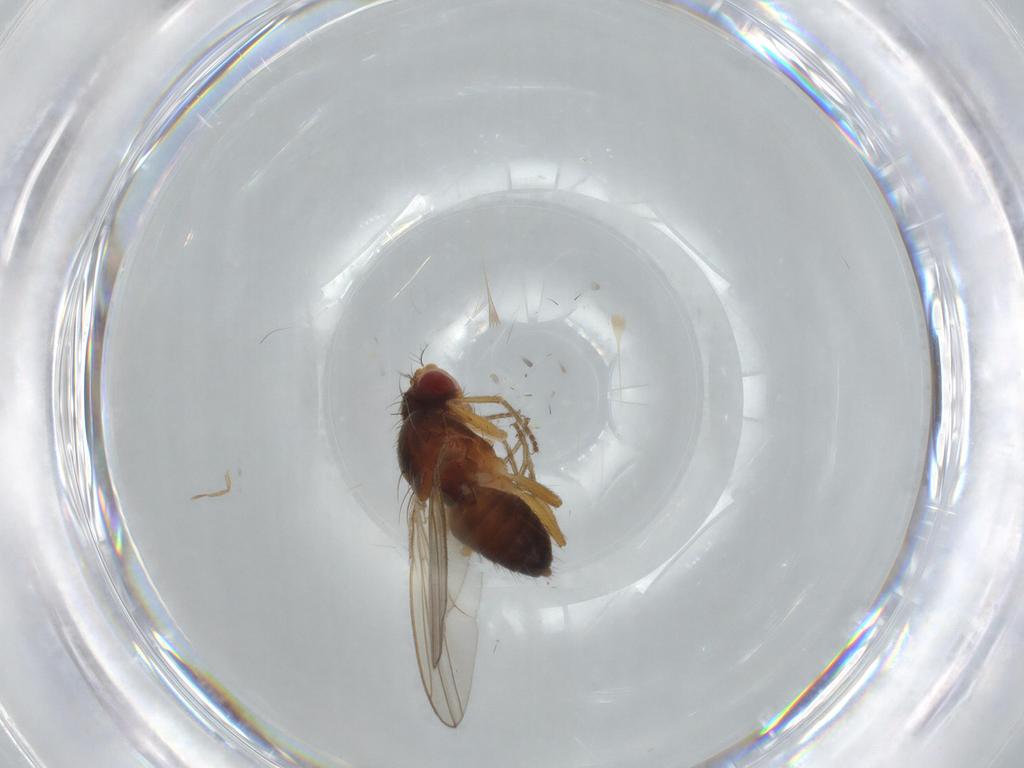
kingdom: Animalia
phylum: Arthropoda
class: Insecta
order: Diptera
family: Drosophilidae
